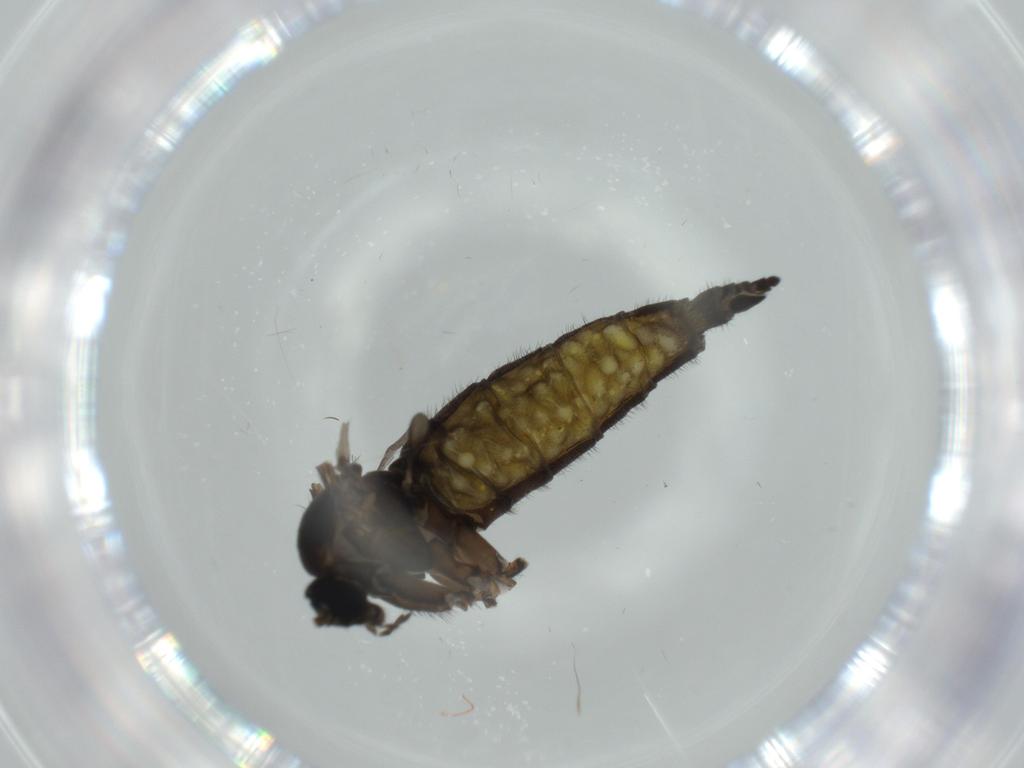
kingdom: Animalia
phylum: Arthropoda
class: Insecta
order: Diptera
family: Sciaridae
